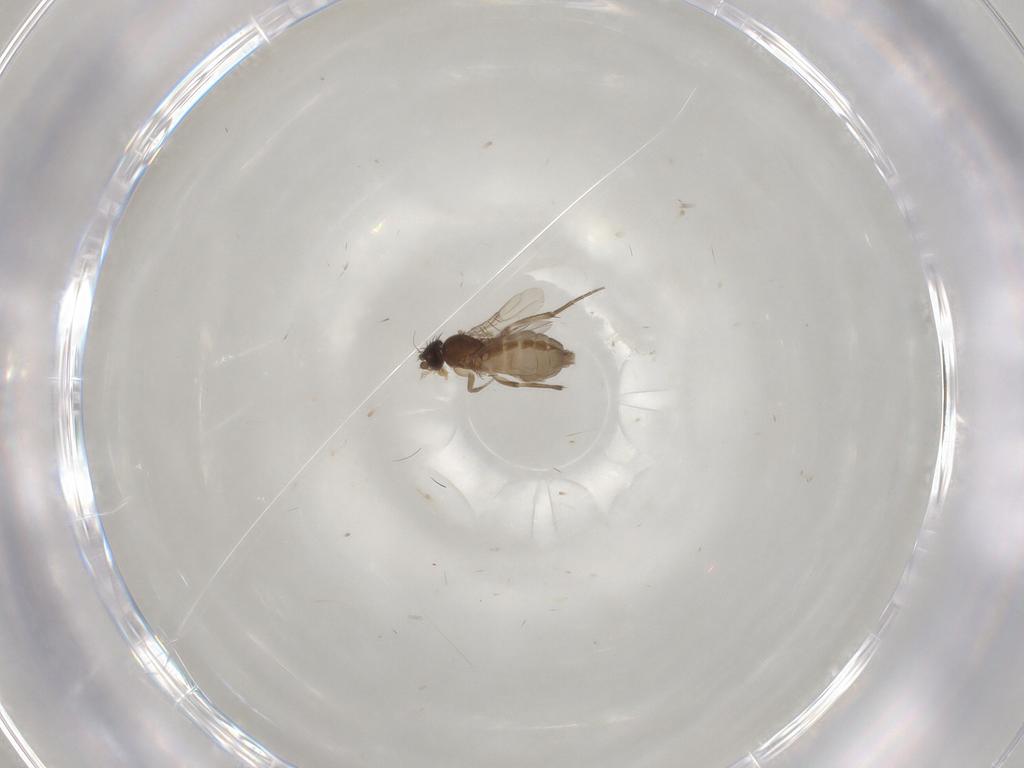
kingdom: Animalia
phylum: Arthropoda
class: Insecta
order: Diptera
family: Phoridae
